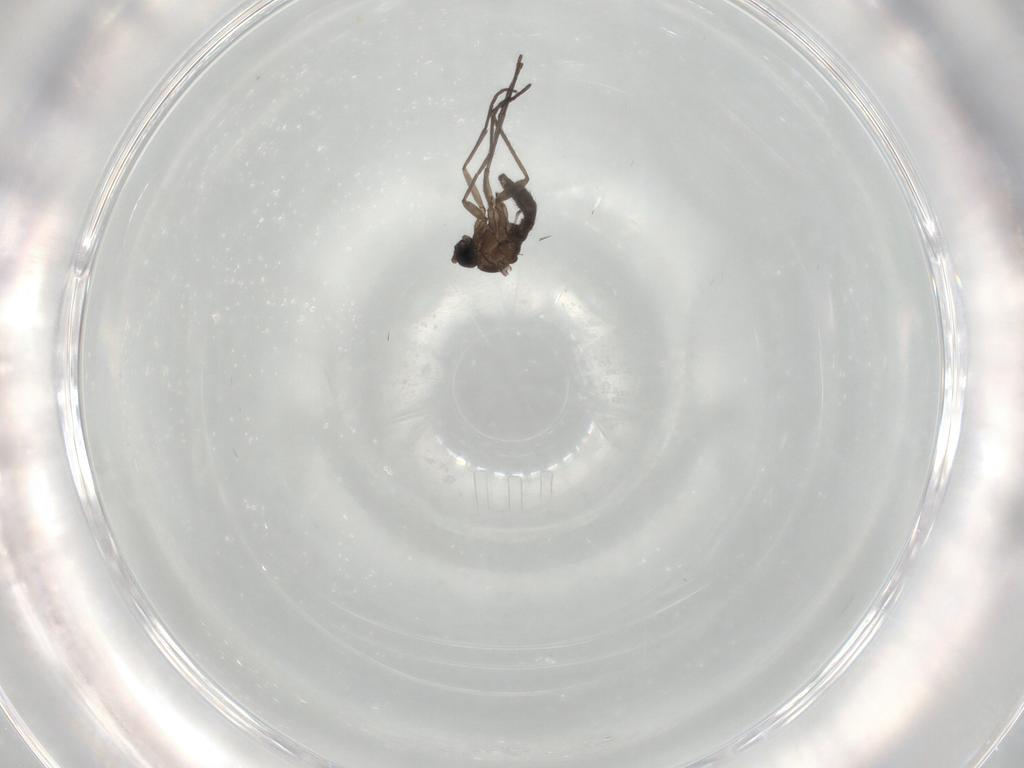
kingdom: Animalia
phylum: Arthropoda
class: Insecta
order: Diptera
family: Sciaridae
